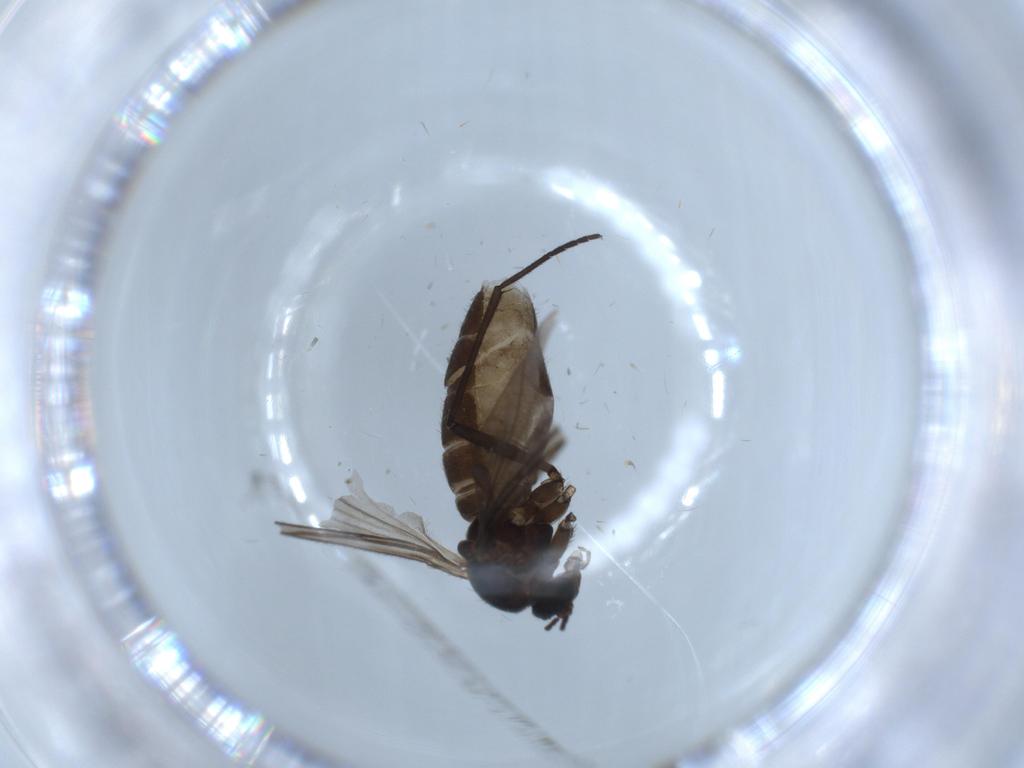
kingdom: Animalia
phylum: Arthropoda
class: Insecta
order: Diptera
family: Sciaridae
